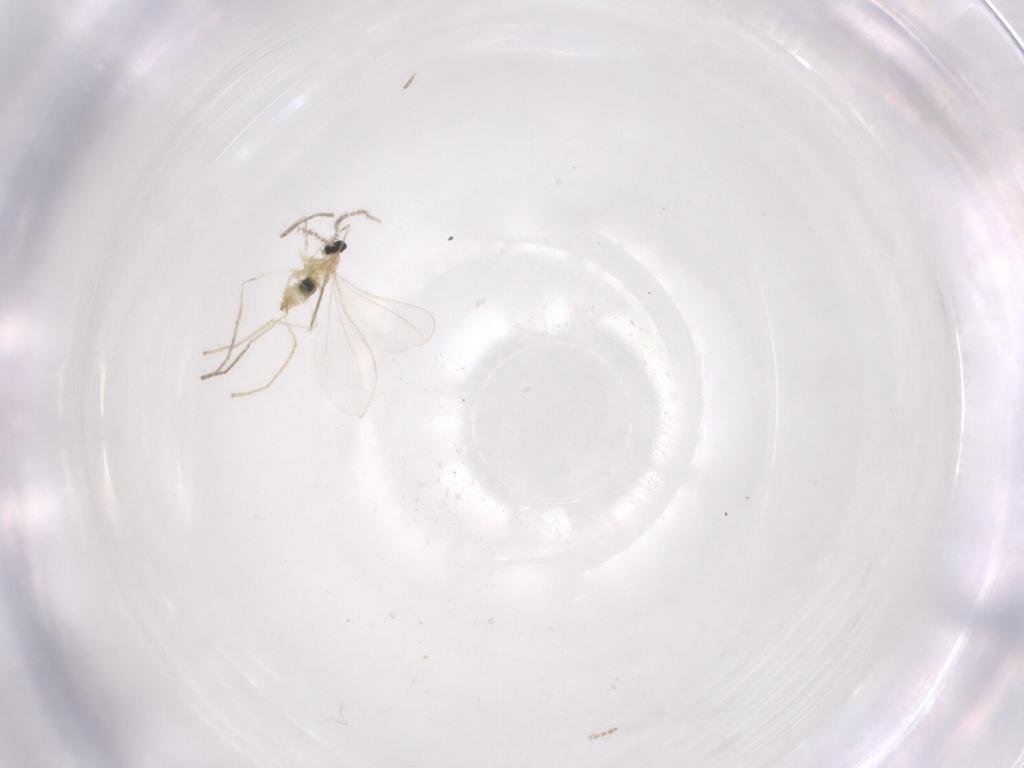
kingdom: Animalia
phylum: Arthropoda
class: Insecta
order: Diptera
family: Cecidomyiidae
